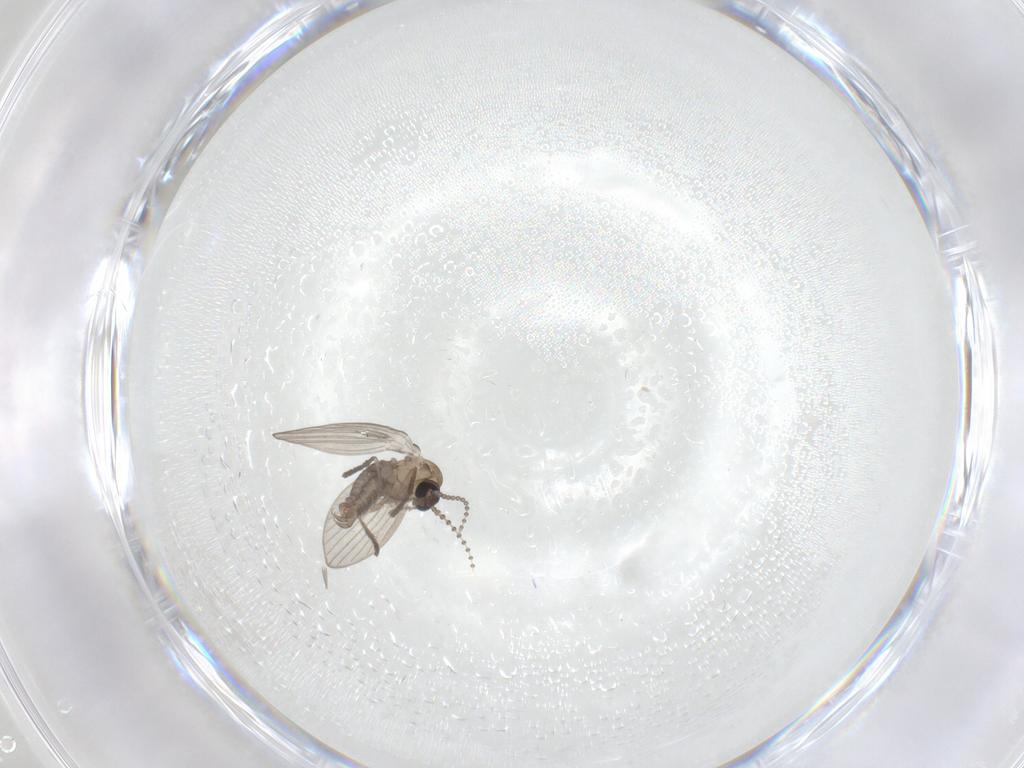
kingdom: Animalia
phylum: Arthropoda
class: Insecta
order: Diptera
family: Psychodidae
